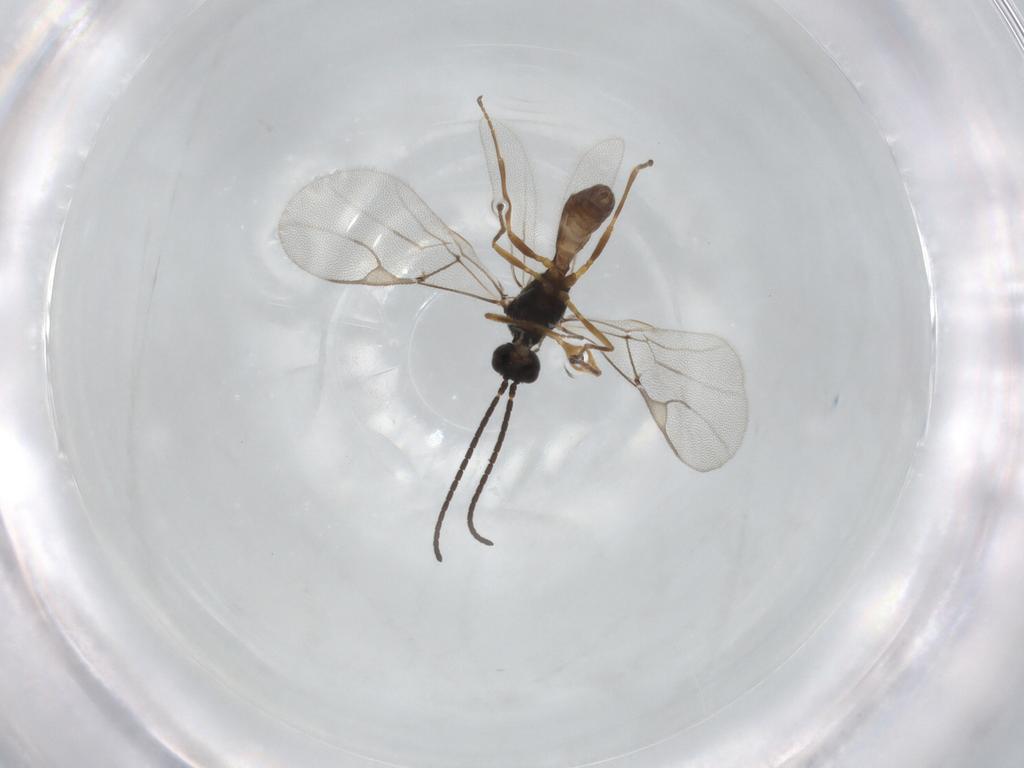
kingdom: Animalia
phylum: Arthropoda
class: Insecta
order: Hymenoptera
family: Braconidae
